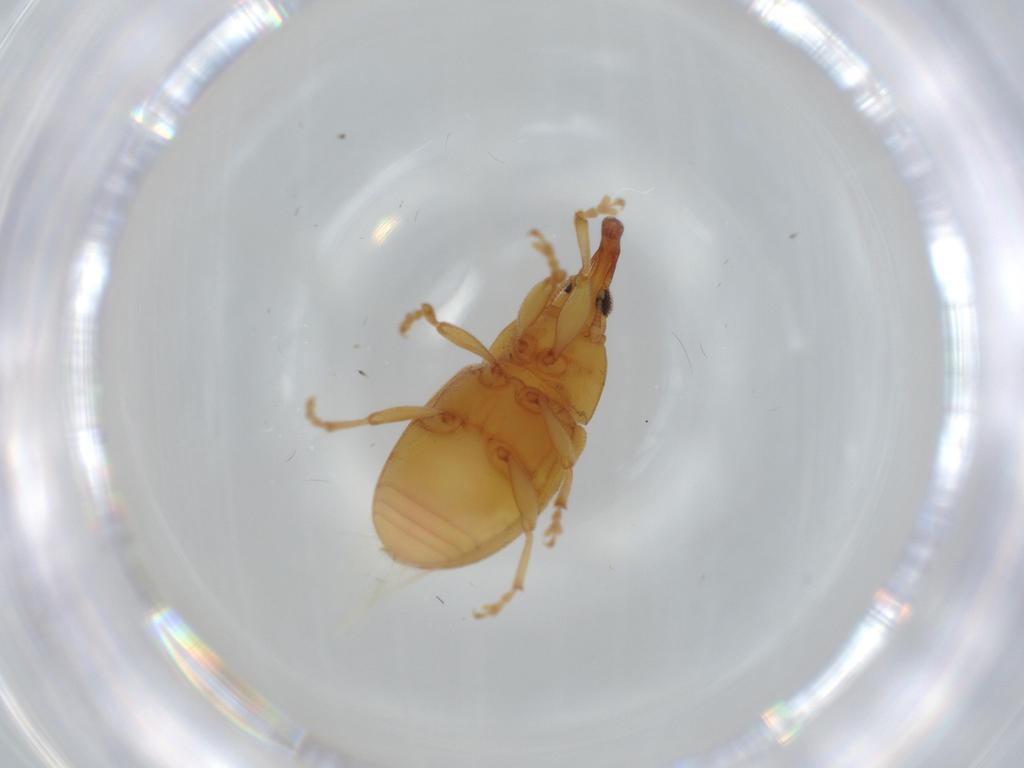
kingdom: Animalia
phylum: Arthropoda
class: Insecta
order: Coleoptera
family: Curculionidae
